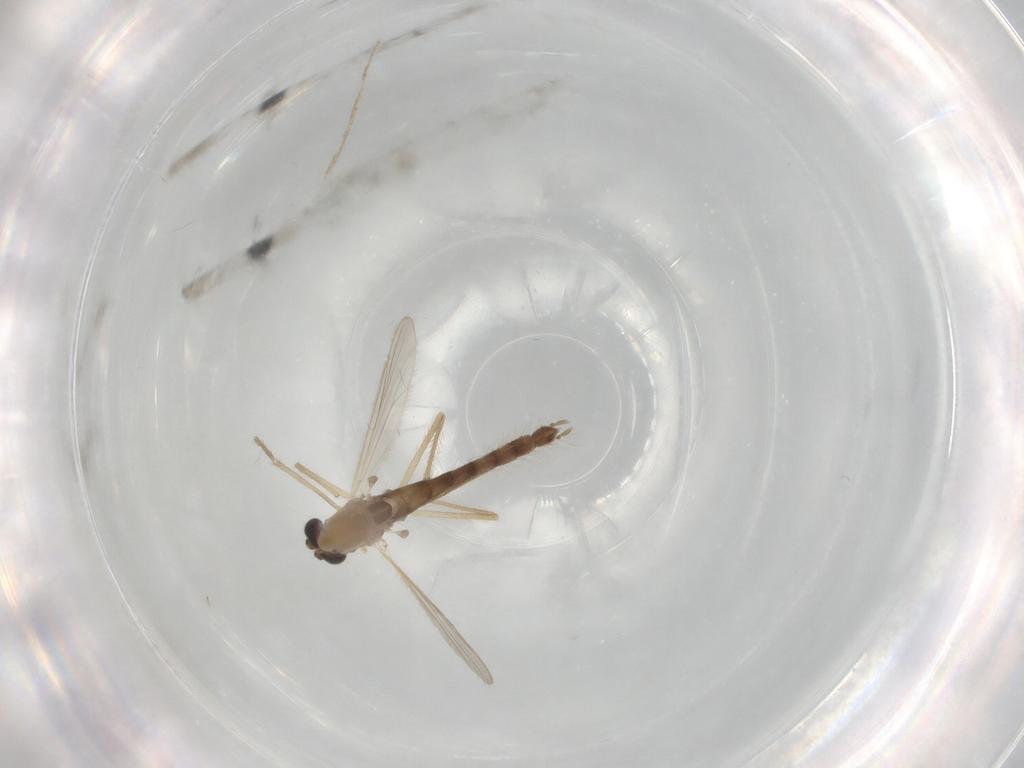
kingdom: Animalia
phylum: Arthropoda
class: Insecta
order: Diptera
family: Chironomidae
